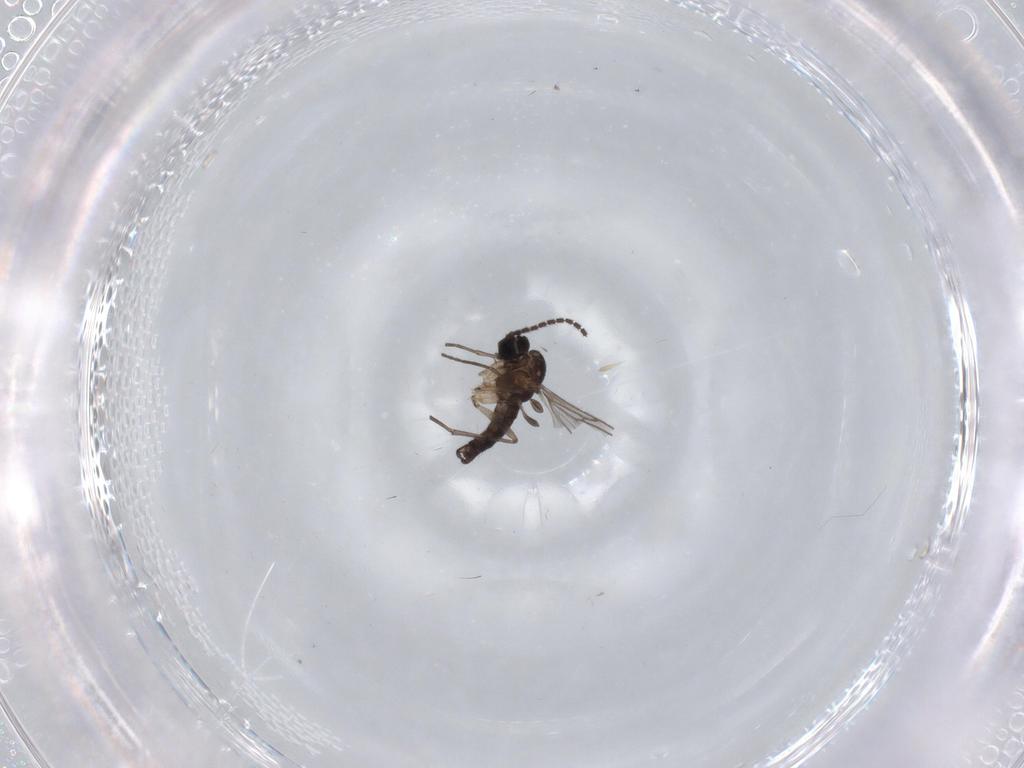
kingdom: Animalia
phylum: Arthropoda
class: Insecta
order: Diptera
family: Sciaridae
